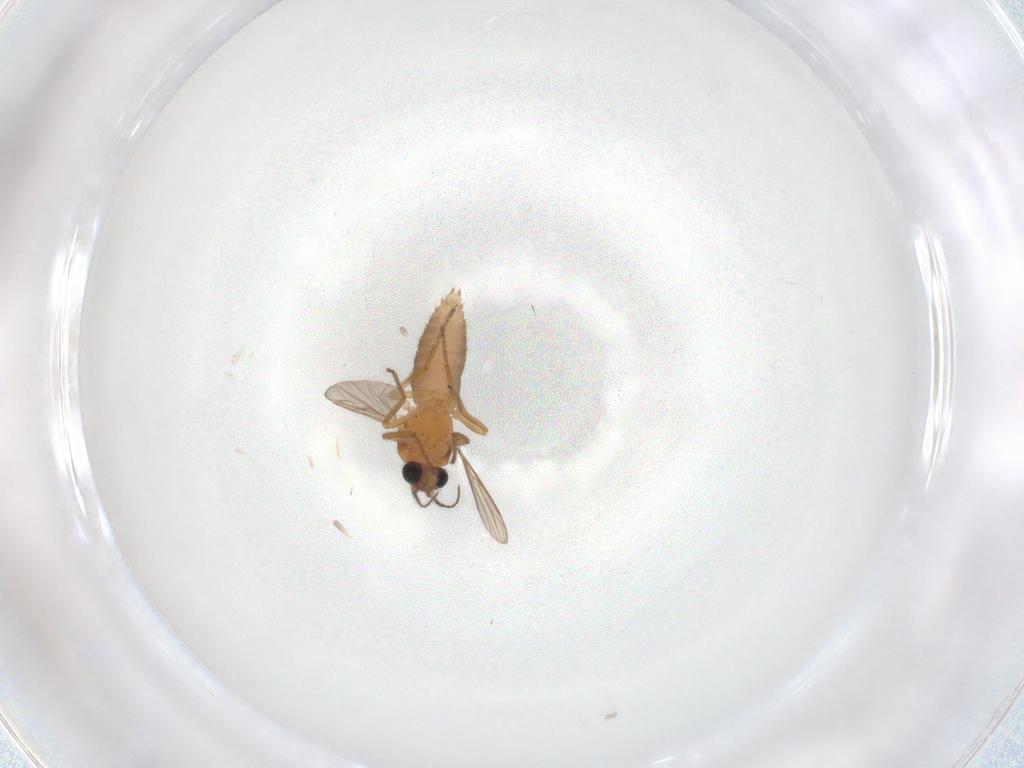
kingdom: Animalia
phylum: Arthropoda
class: Insecta
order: Diptera
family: Ceratopogonidae
